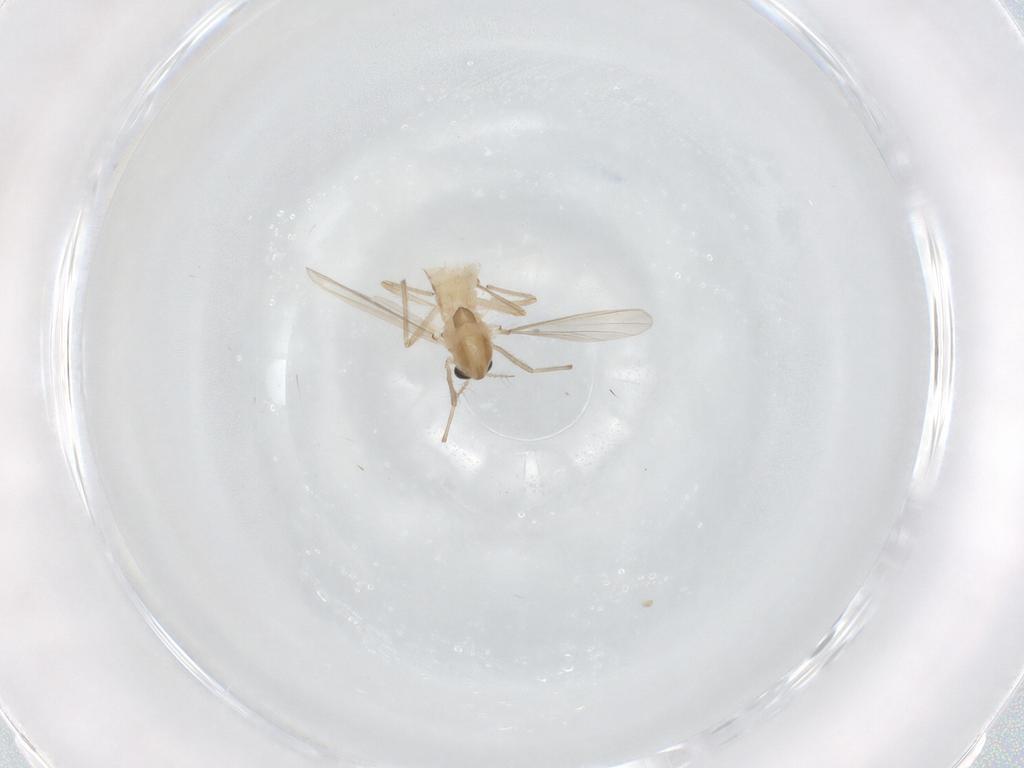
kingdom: Animalia
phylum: Arthropoda
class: Insecta
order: Diptera
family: Chironomidae
